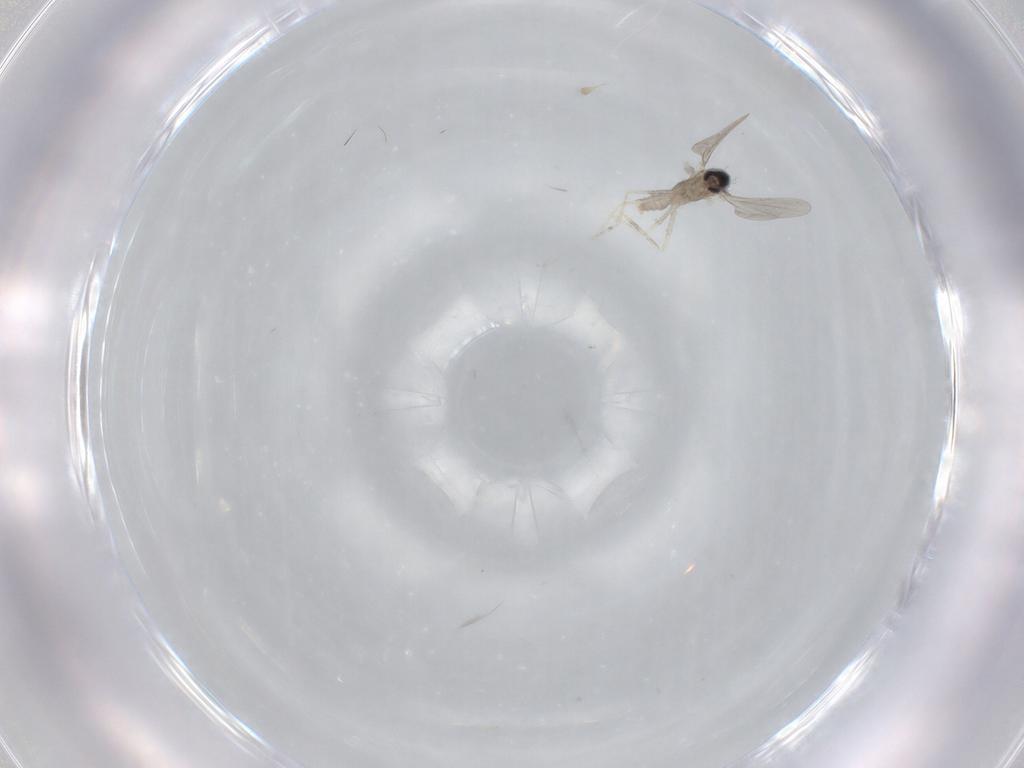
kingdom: Animalia
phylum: Arthropoda
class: Insecta
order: Diptera
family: Cecidomyiidae
